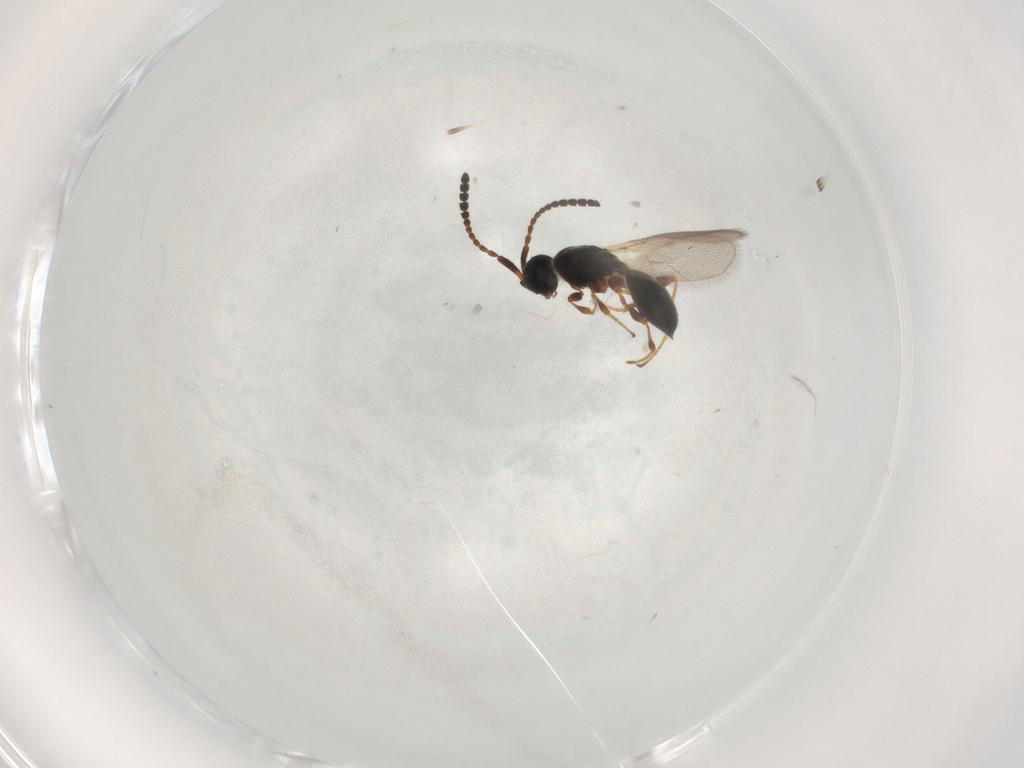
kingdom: Animalia
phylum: Arthropoda
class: Insecta
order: Hymenoptera
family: Diapriidae
